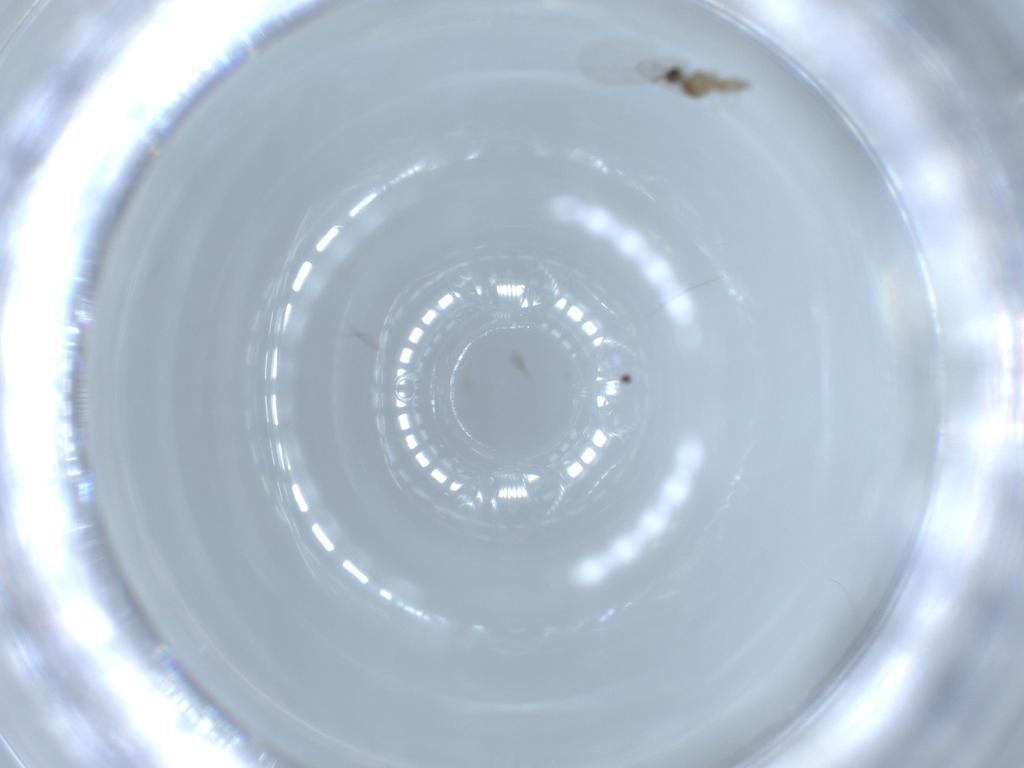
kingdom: Animalia
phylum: Arthropoda
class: Insecta
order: Diptera
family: Cecidomyiidae
